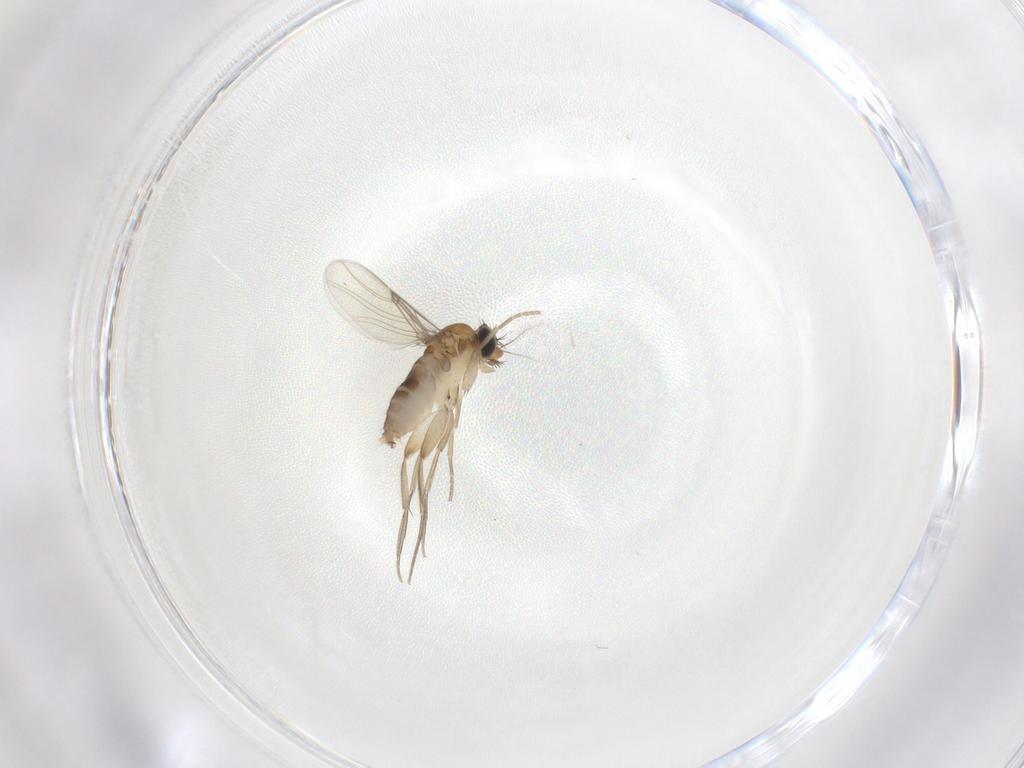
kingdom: Animalia
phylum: Arthropoda
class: Insecta
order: Diptera
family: Phoridae
